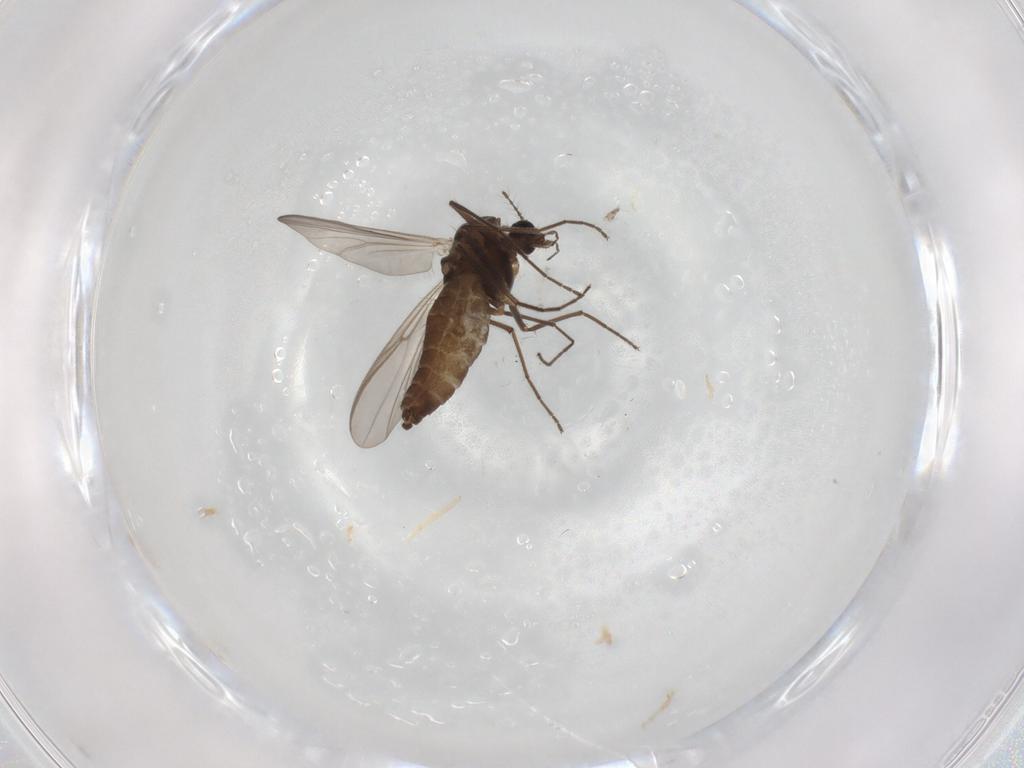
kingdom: Animalia
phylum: Arthropoda
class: Insecta
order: Diptera
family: Chironomidae
